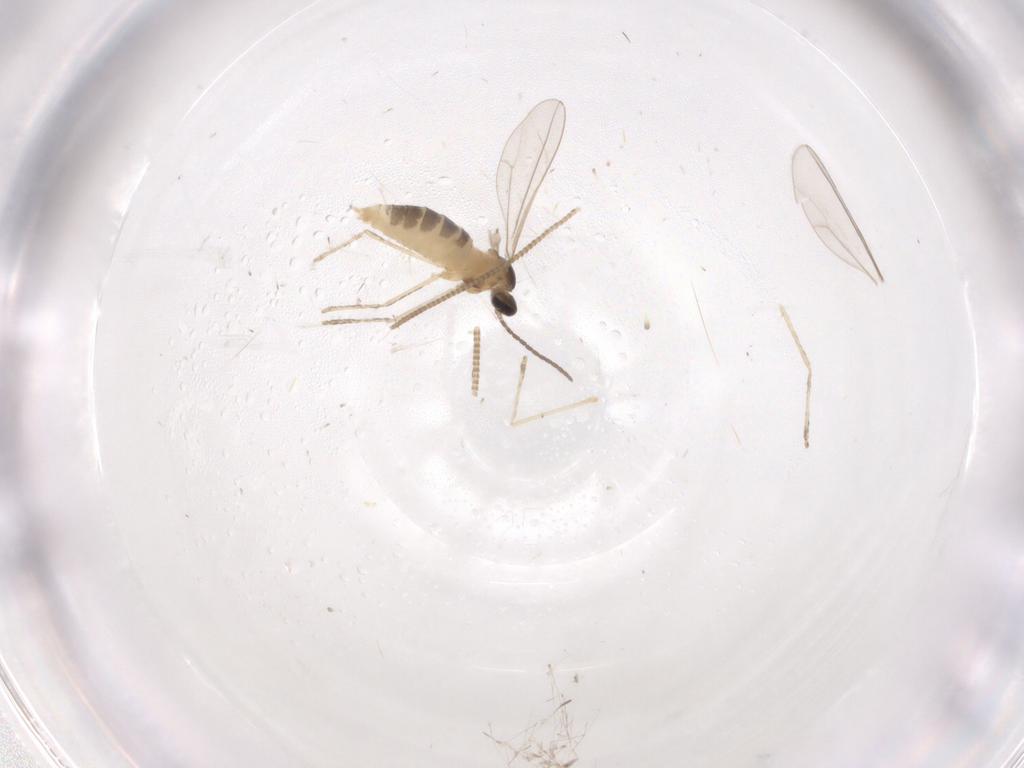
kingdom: Animalia
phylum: Arthropoda
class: Insecta
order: Diptera
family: Cecidomyiidae
